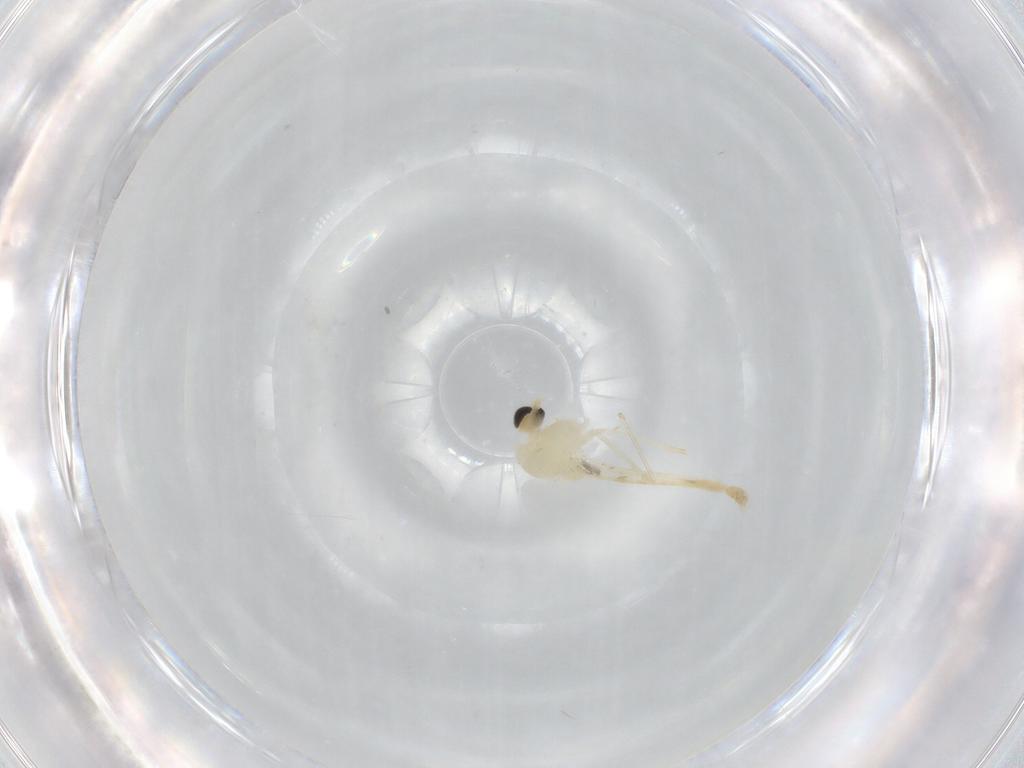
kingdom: Animalia
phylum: Arthropoda
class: Insecta
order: Diptera
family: Chironomidae
